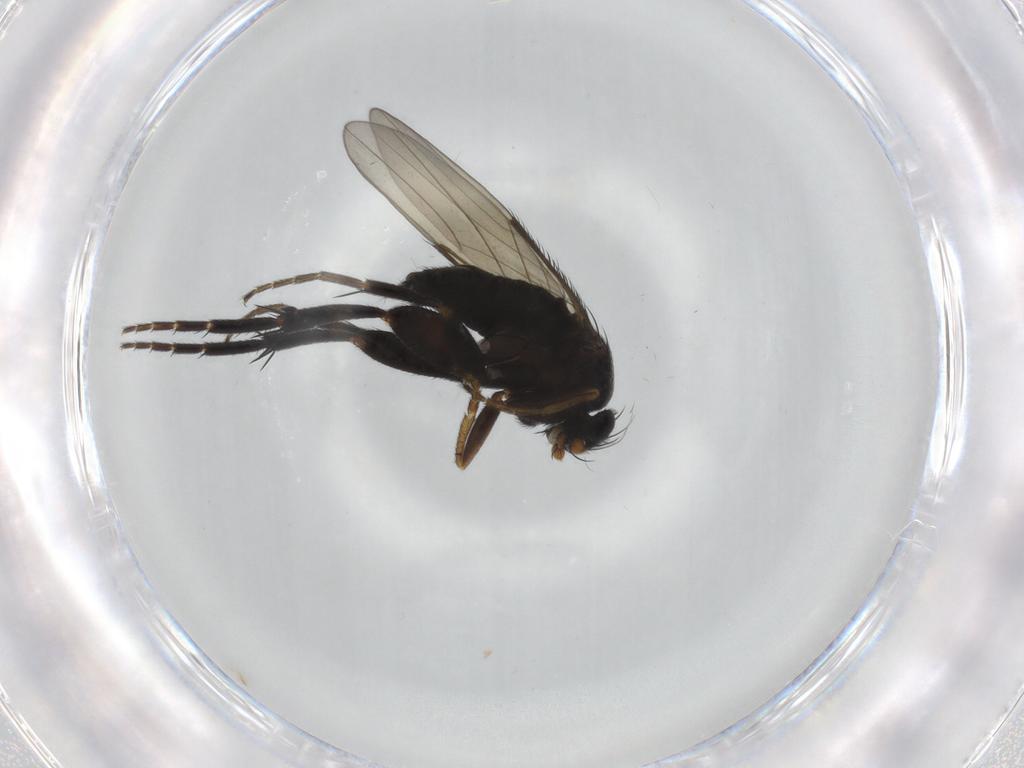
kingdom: Animalia
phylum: Arthropoda
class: Insecta
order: Diptera
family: Phoridae
